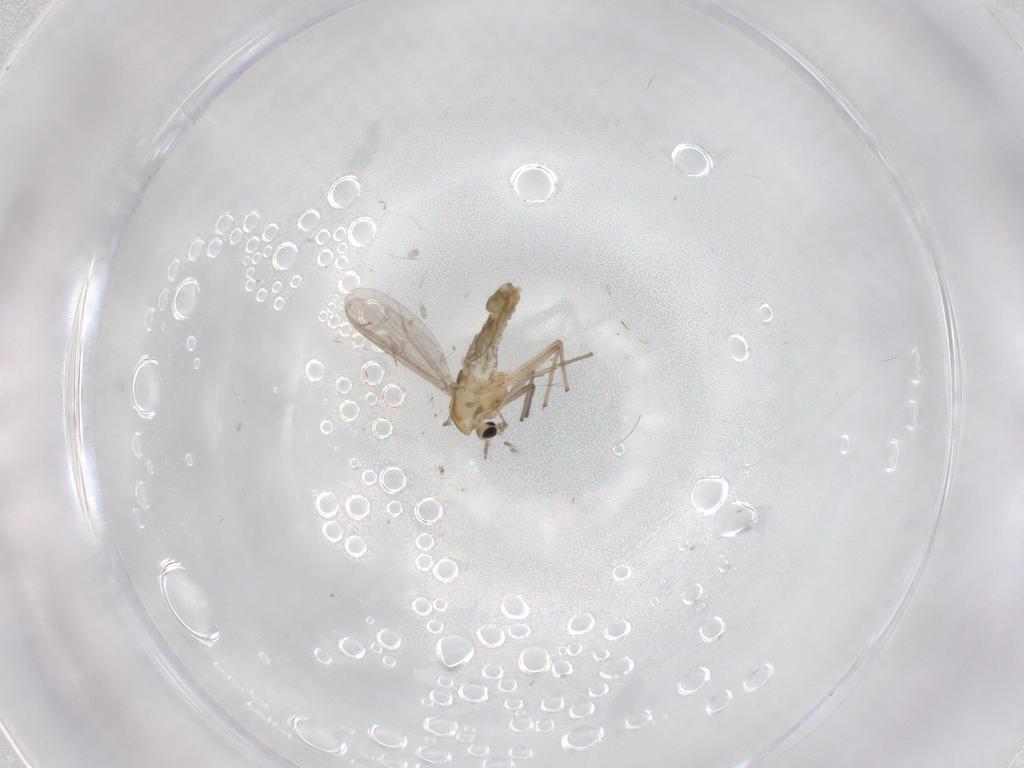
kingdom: Animalia
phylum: Arthropoda
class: Insecta
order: Diptera
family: Chironomidae
